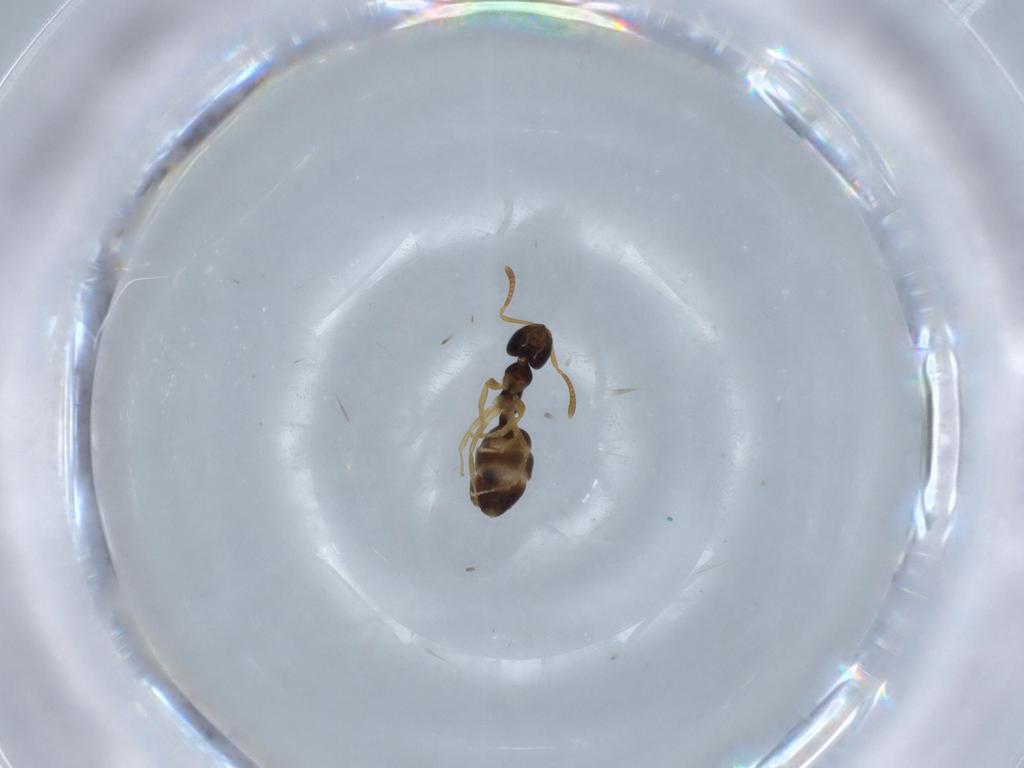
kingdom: Animalia
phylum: Arthropoda
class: Insecta
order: Hymenoptera
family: Formicidae
